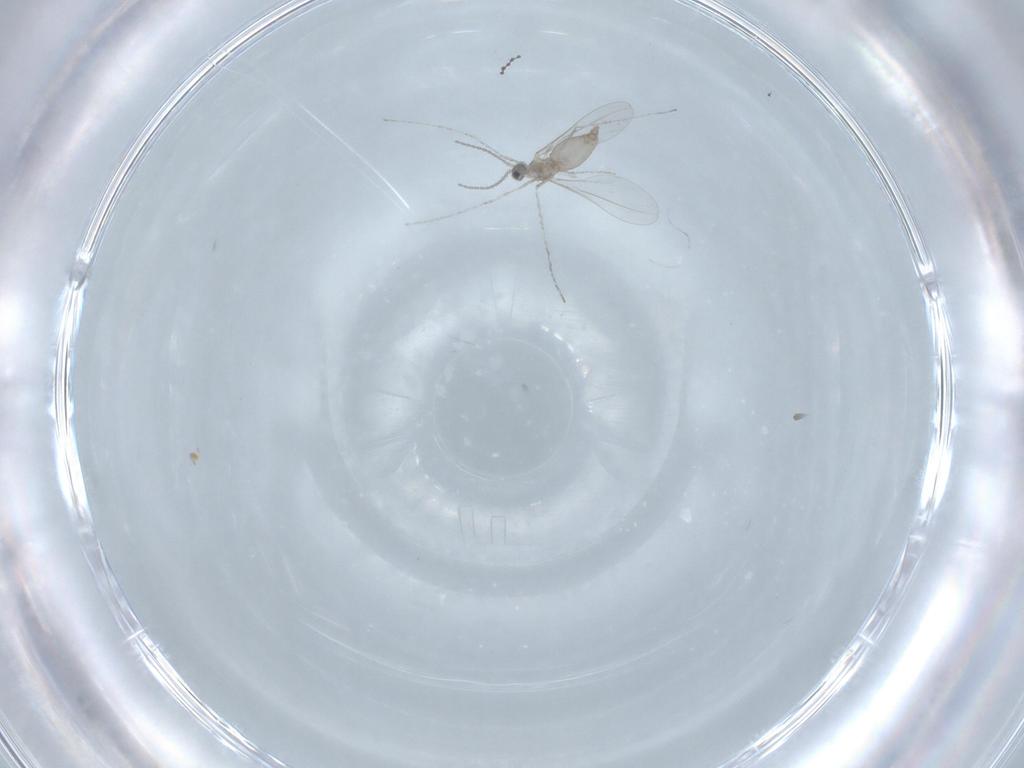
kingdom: Animalia
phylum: Arthropoda
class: Insecta
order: Diptera
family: Cecidomyiidae
